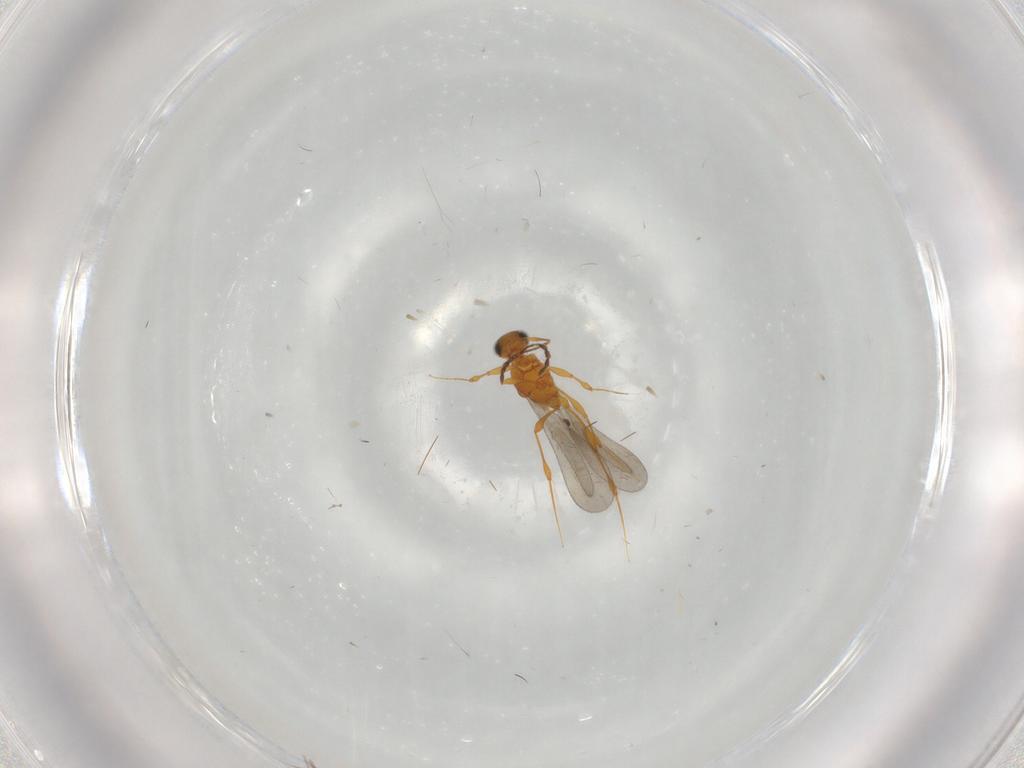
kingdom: Animalia
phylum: Arthropoda
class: Insecta
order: Hymenoptera
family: Platygastridae
